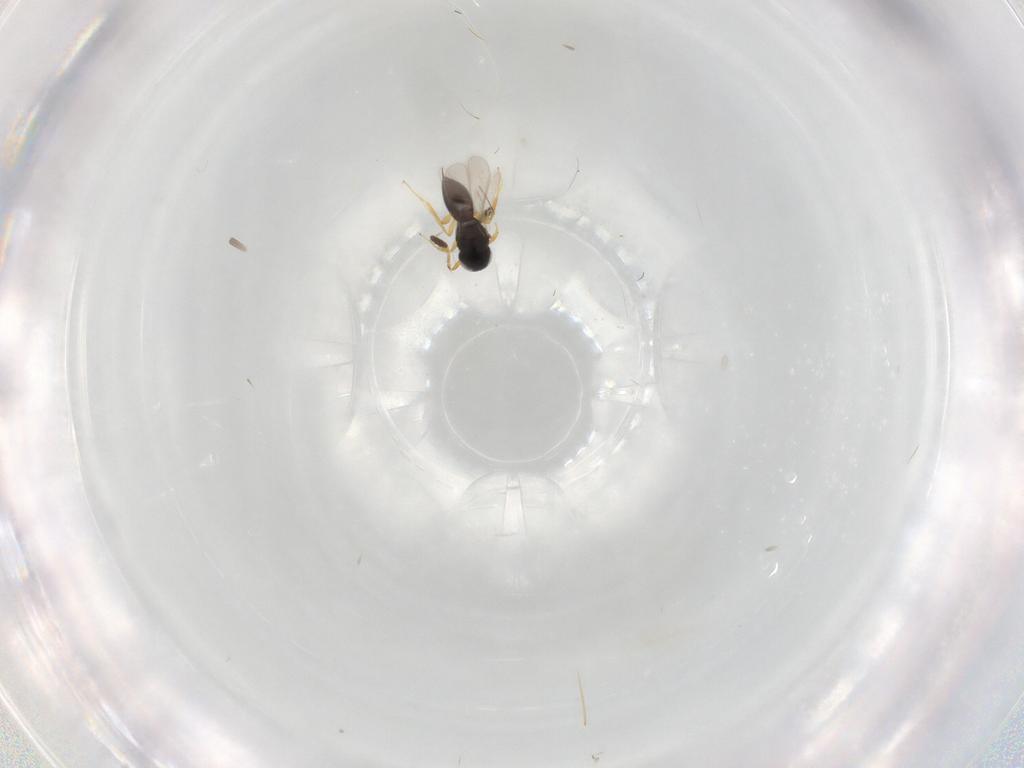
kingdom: Animalia
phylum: Arthropoda
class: Insecta
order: Hymenoptera
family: Scelionidae
